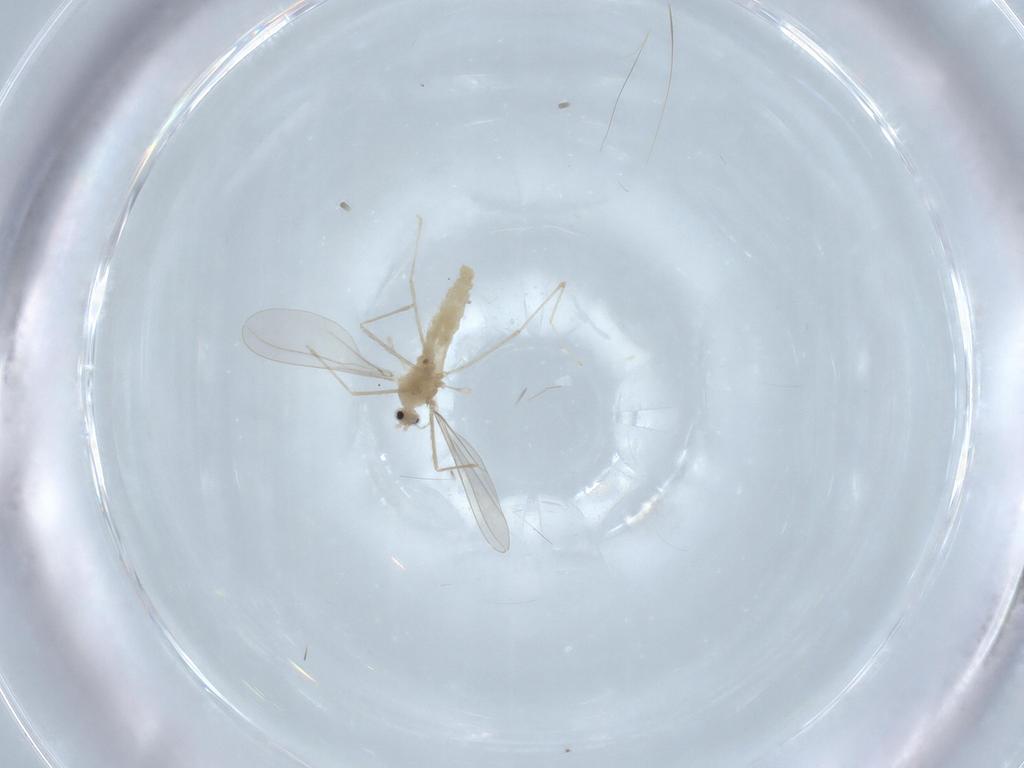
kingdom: Animalia
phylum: Arthropoda
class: Insecta
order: Diptera
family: Cecidomyiidae
